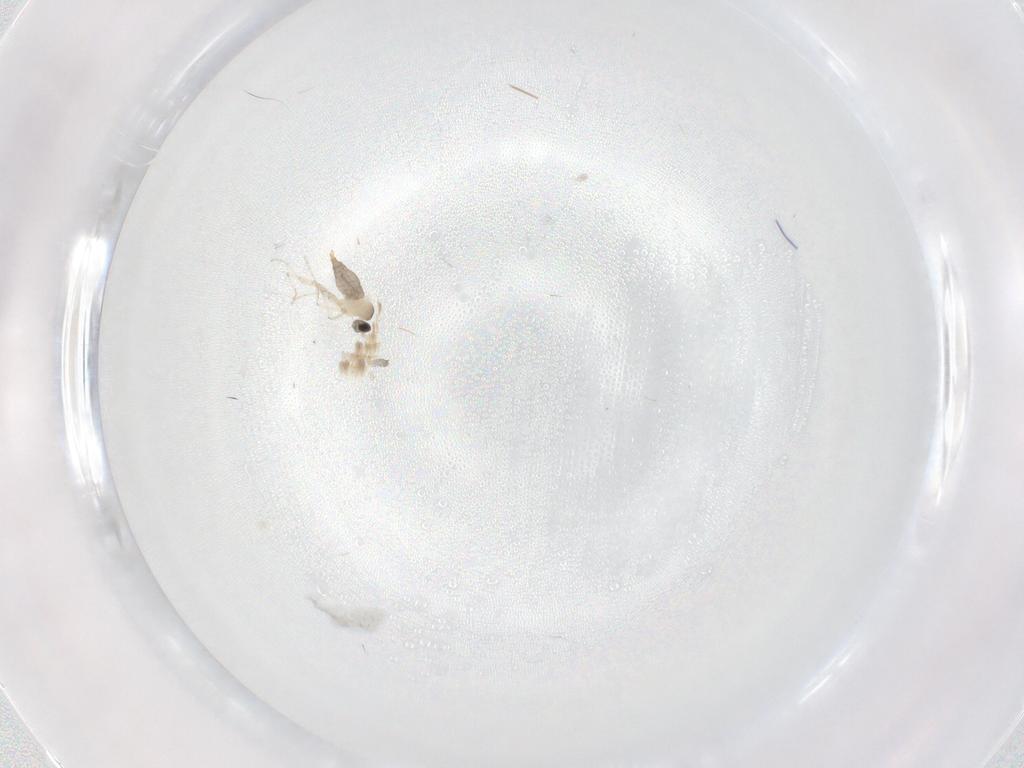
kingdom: Animalia
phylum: Arthropoda
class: Insecta
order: Diptera
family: Cecidomyiidae
